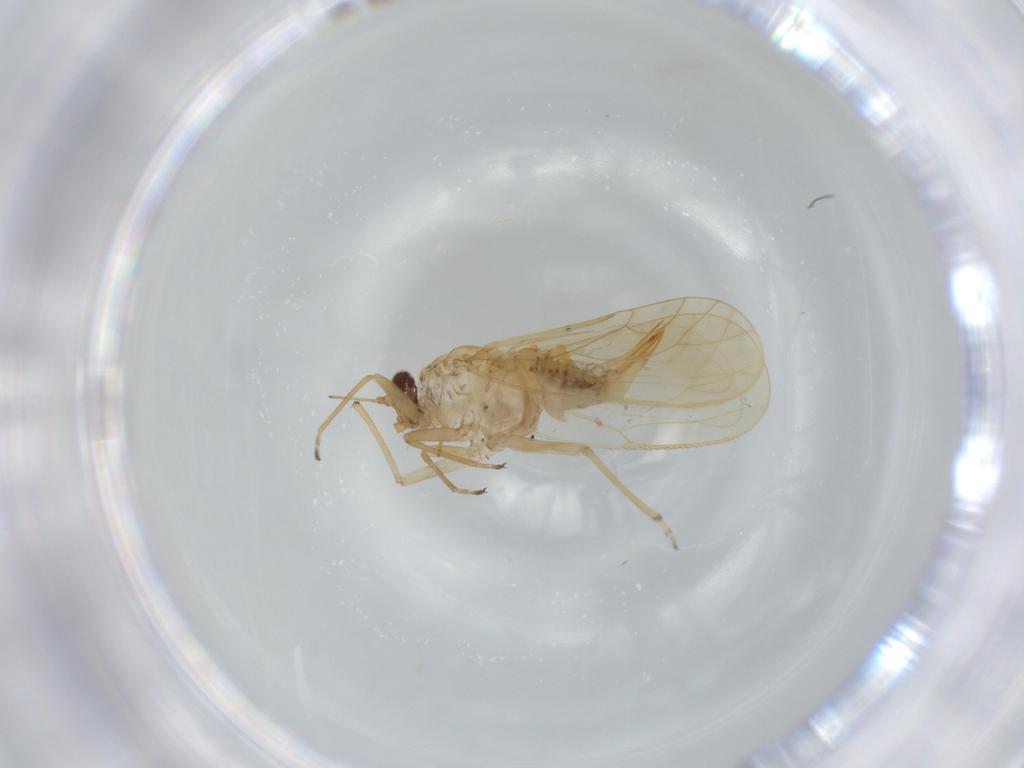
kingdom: Animalia
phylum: Arthropoda
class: Insecta
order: Hemiptera
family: Psyllidae
